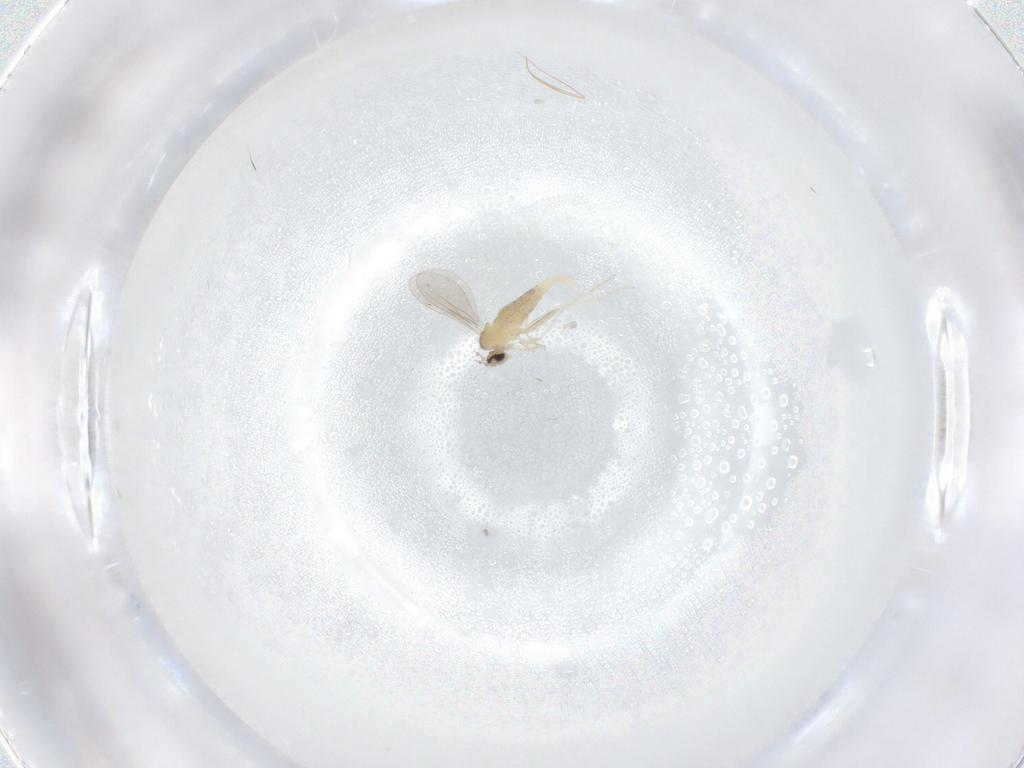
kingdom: Animalia
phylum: Arthropoda
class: Insecta
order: Diptera
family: Cecidomyiidae
